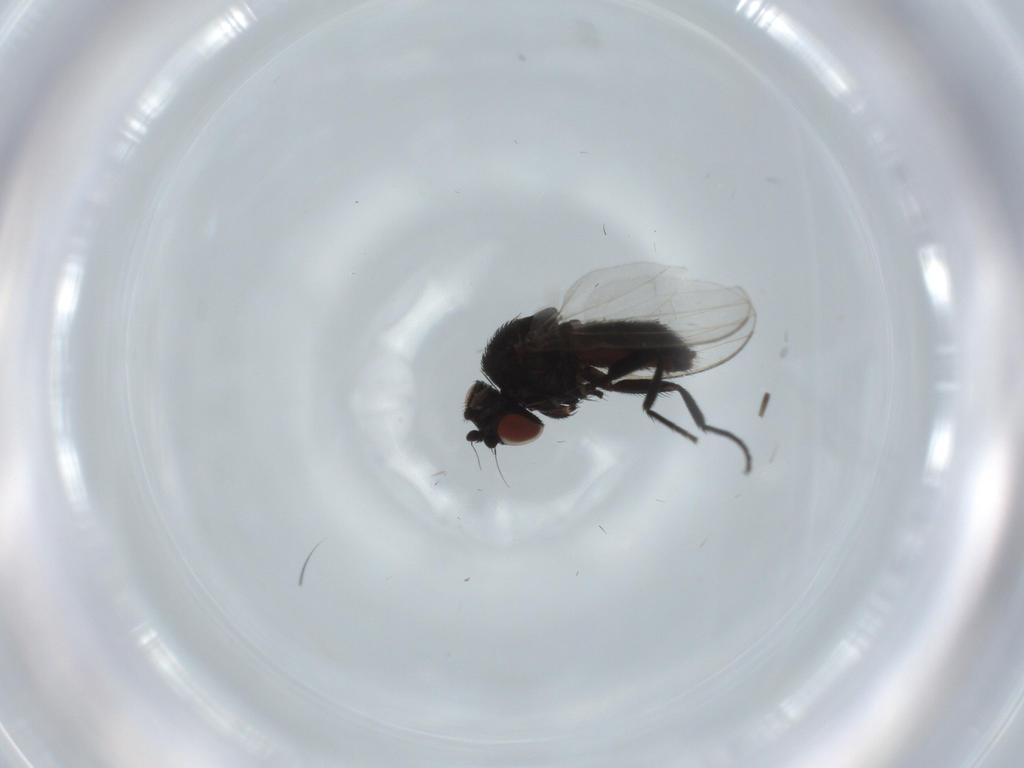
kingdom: Animalia
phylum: Arthropoda
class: Insecta
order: Diptera
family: Milichiidae
